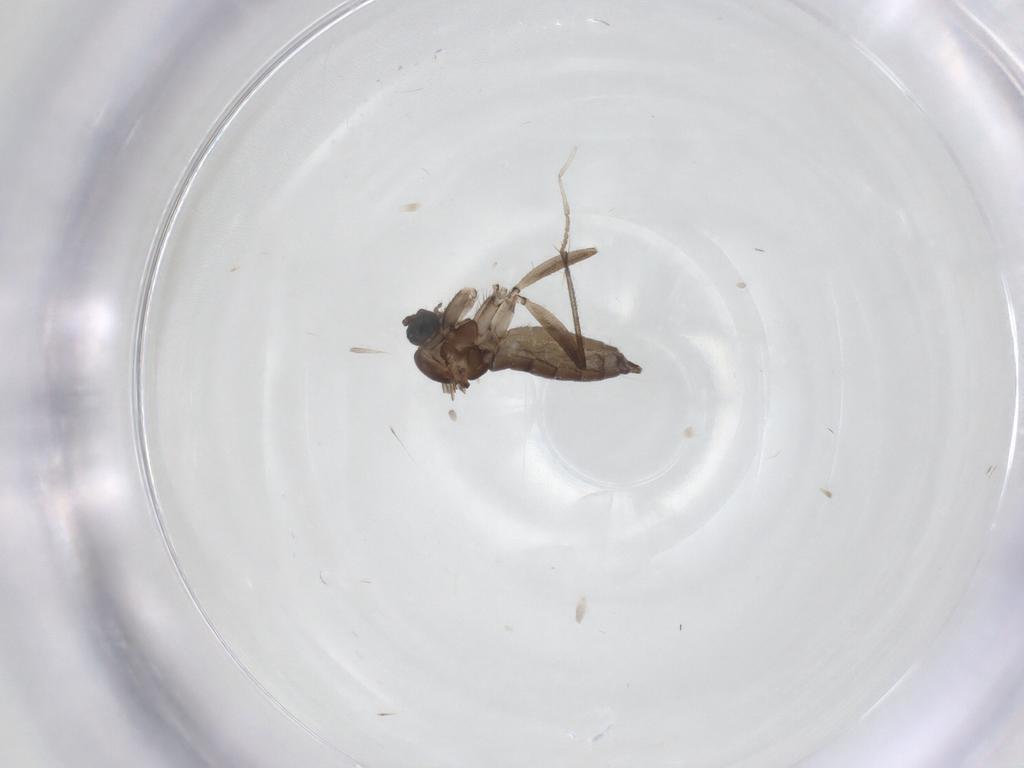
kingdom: Animalia
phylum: Arthropoda
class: Insecta
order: Diptera
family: Sciaridae
